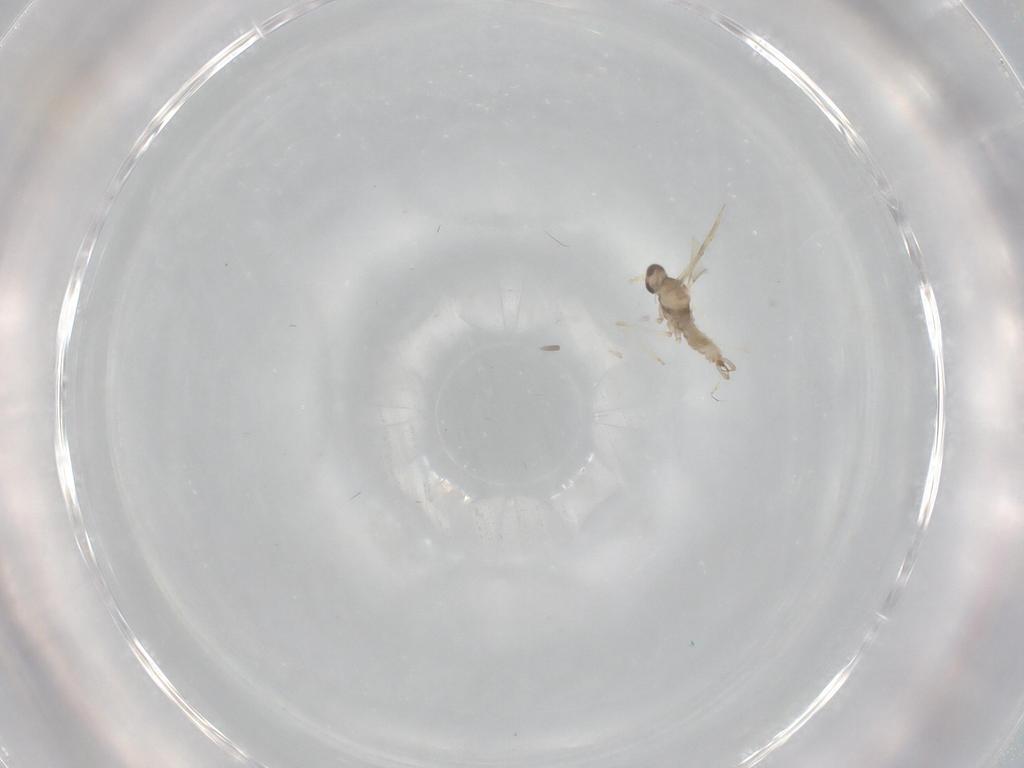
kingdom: Animalia
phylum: Arthropoda
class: Insecta
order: Diptera
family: Cecidomyiidae
